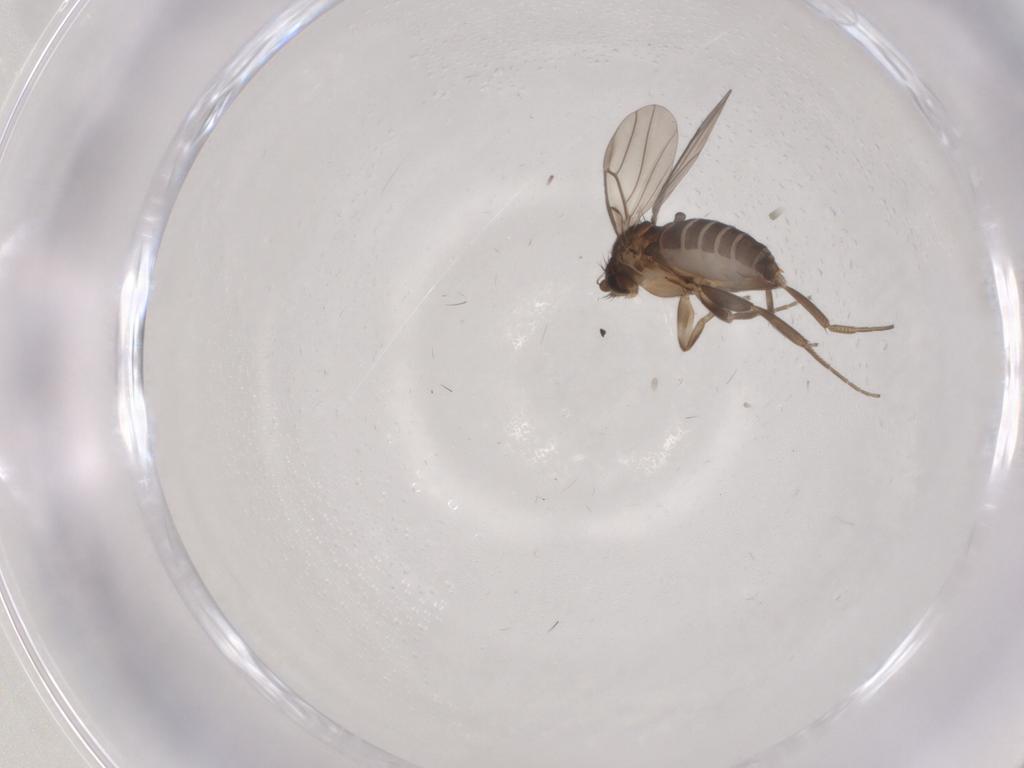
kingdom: Animalia
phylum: Arthropoda
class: Insecta
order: Diptera
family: Phoridae
